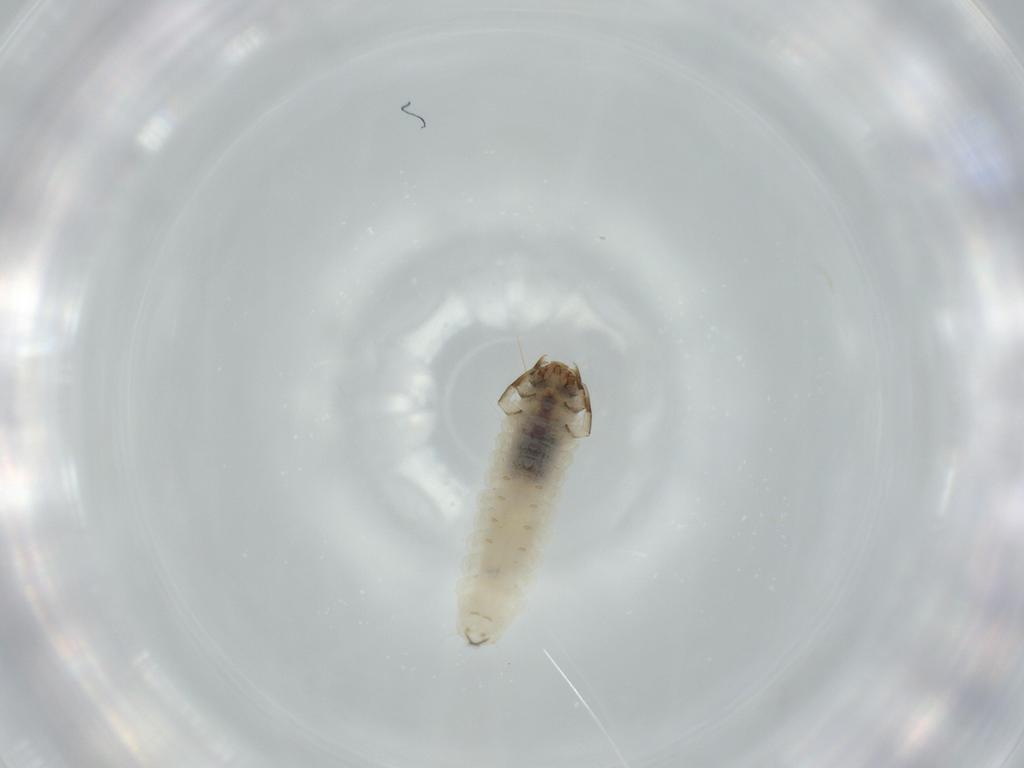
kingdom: Animalia
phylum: Arthropoda
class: Insecta
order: Lepidoptera
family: Tineidae
